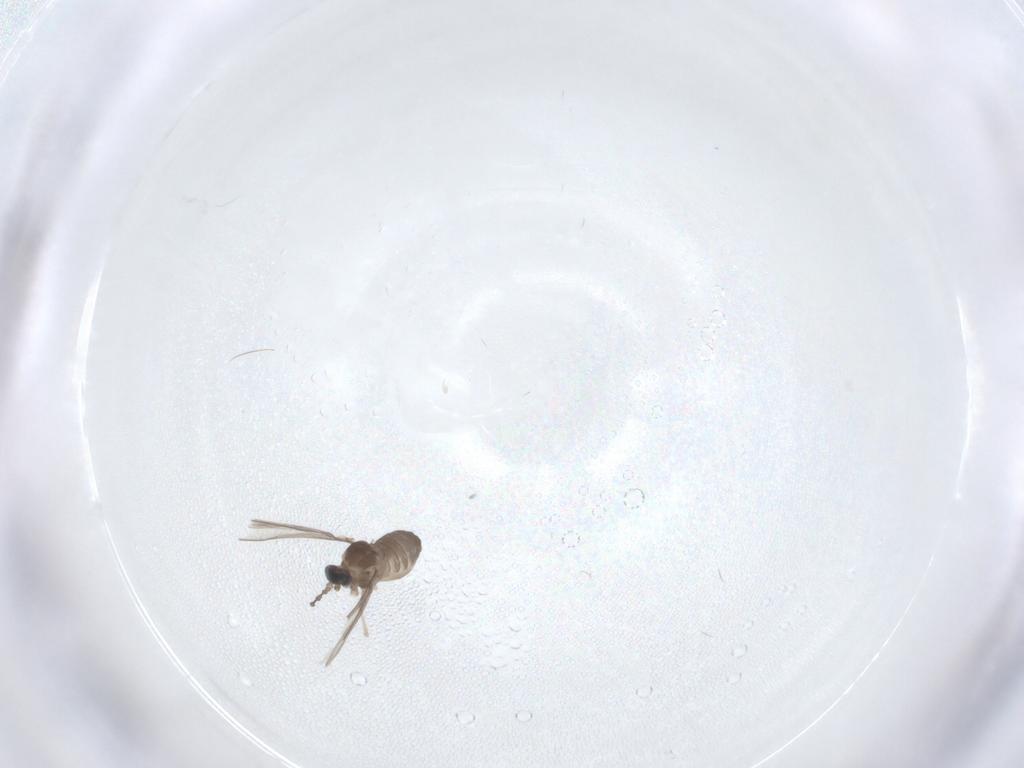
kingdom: Animalia
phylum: Arthropoda
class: Insecta
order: Diptera
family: Cecidomyiidae
